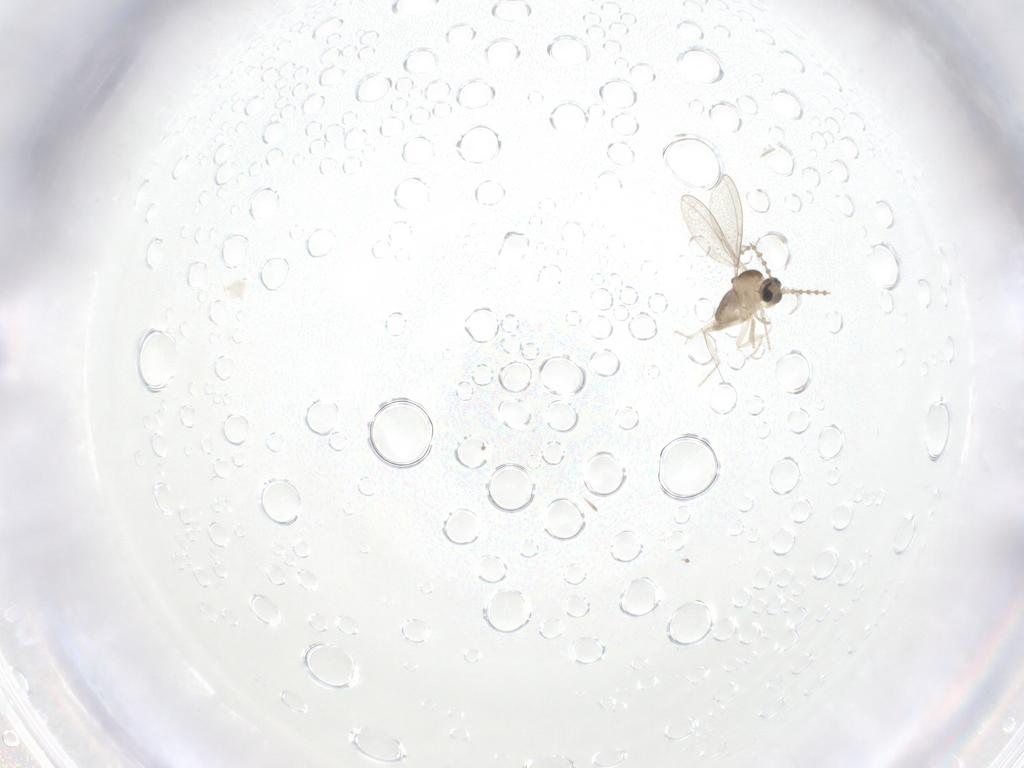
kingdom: Animalia
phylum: Arthropoda
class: Insecta
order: Diptera
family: Cecidomyiidae
